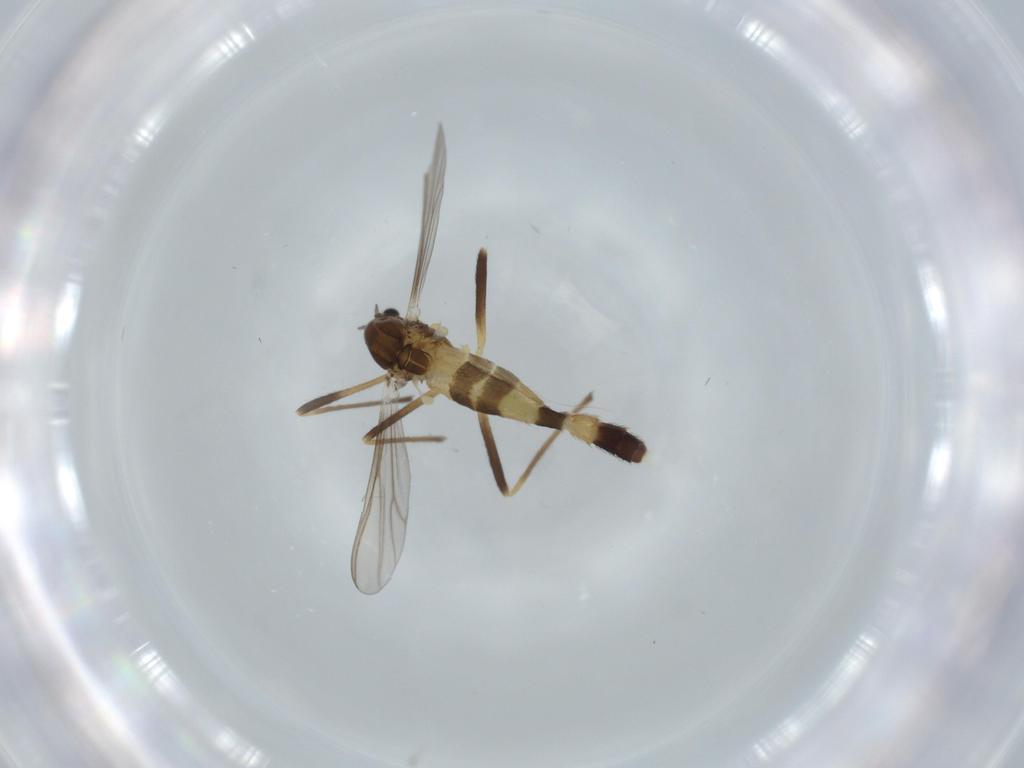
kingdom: Animalia
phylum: Arthropoda
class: Insecta
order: Diptera
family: Chironomidae
